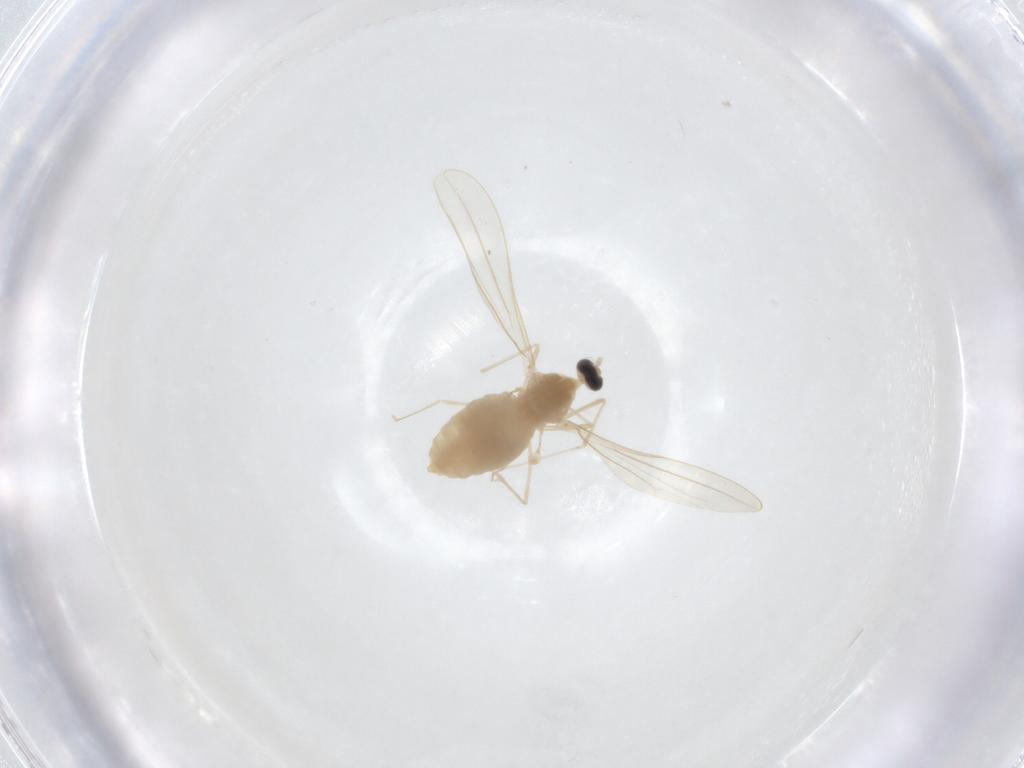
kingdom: Animalia
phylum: Arthropoda
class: Insecta
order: Diptera
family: Cecidomyiidae
